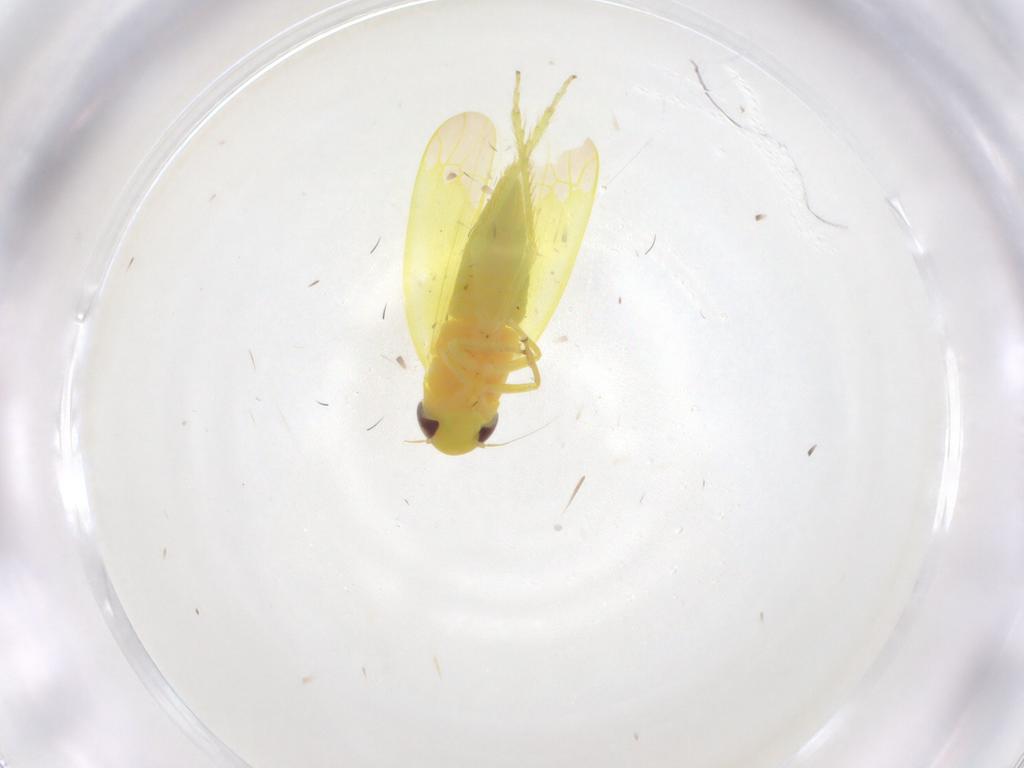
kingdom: Animalia
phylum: Arthropoda
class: Insecta
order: Hemiptera
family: Cicadellidae
